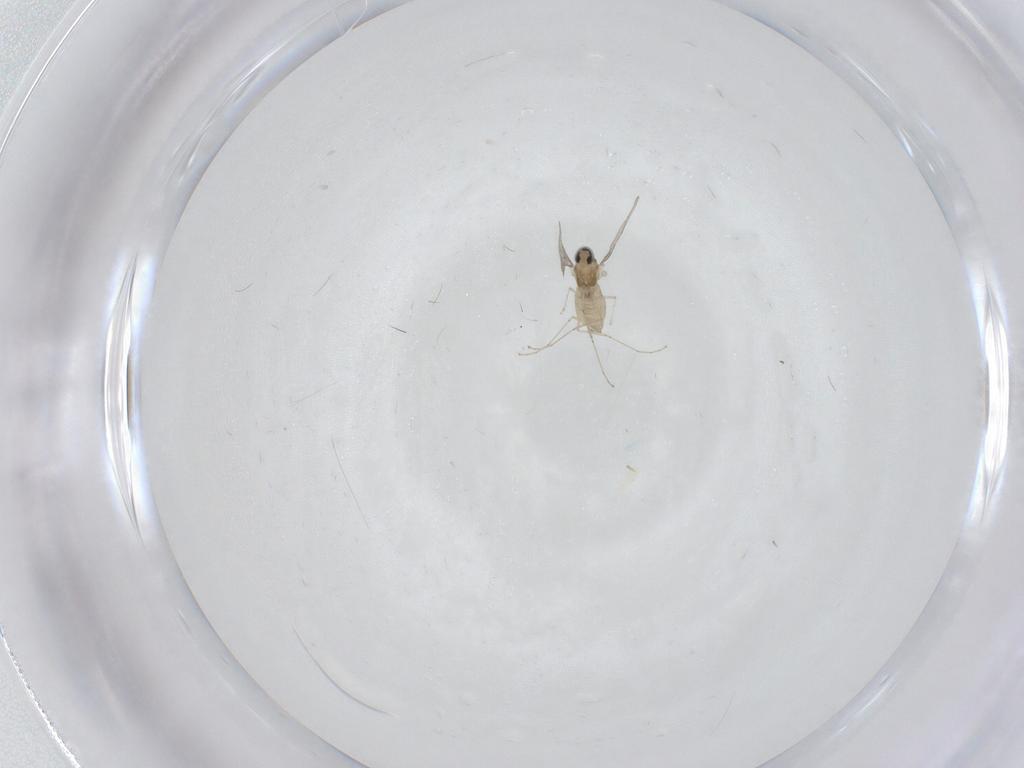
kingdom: Animalia
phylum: Arthropoda
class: Insecta
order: Diptera
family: Cecidomyiidae
